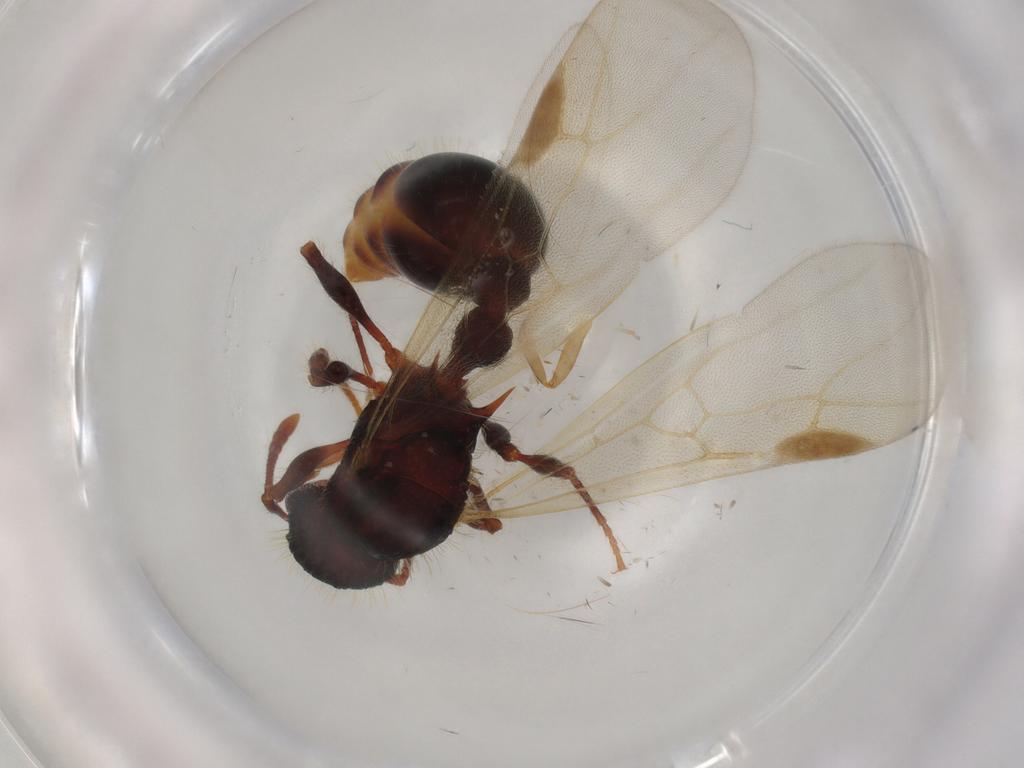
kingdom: Animalia
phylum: Arthropoda
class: Insecta
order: Hymenoptera
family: Formicidae
